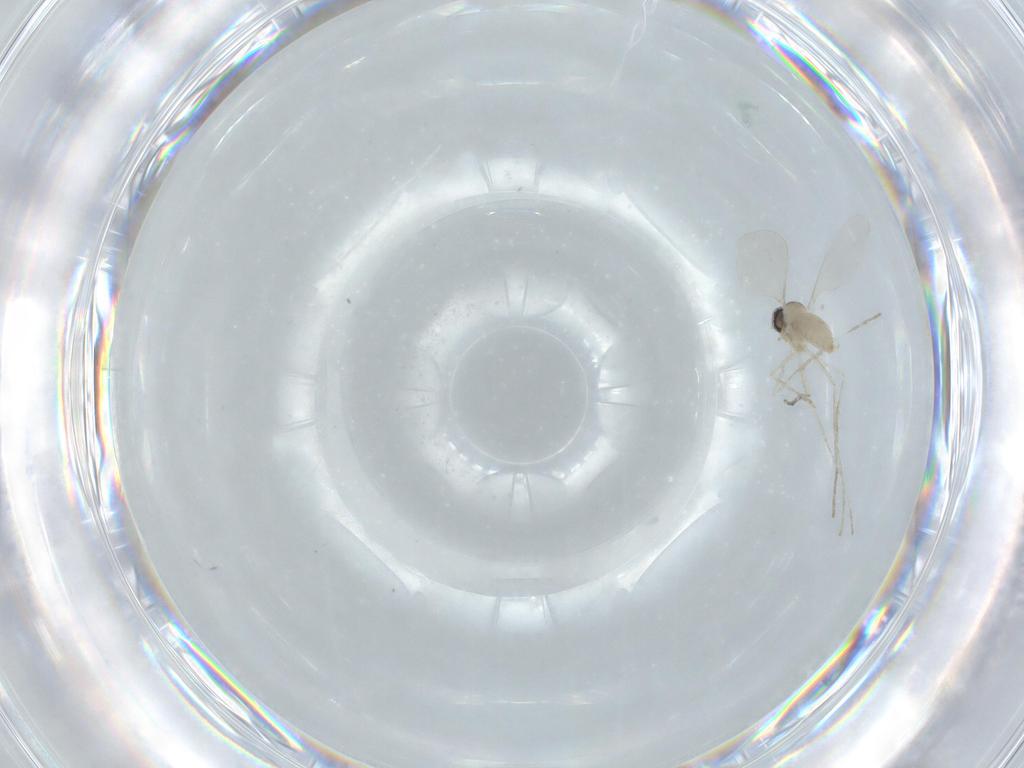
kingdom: Animalia
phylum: Arthropoda
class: Insecta
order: Diptera
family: Cecidomyiidae
